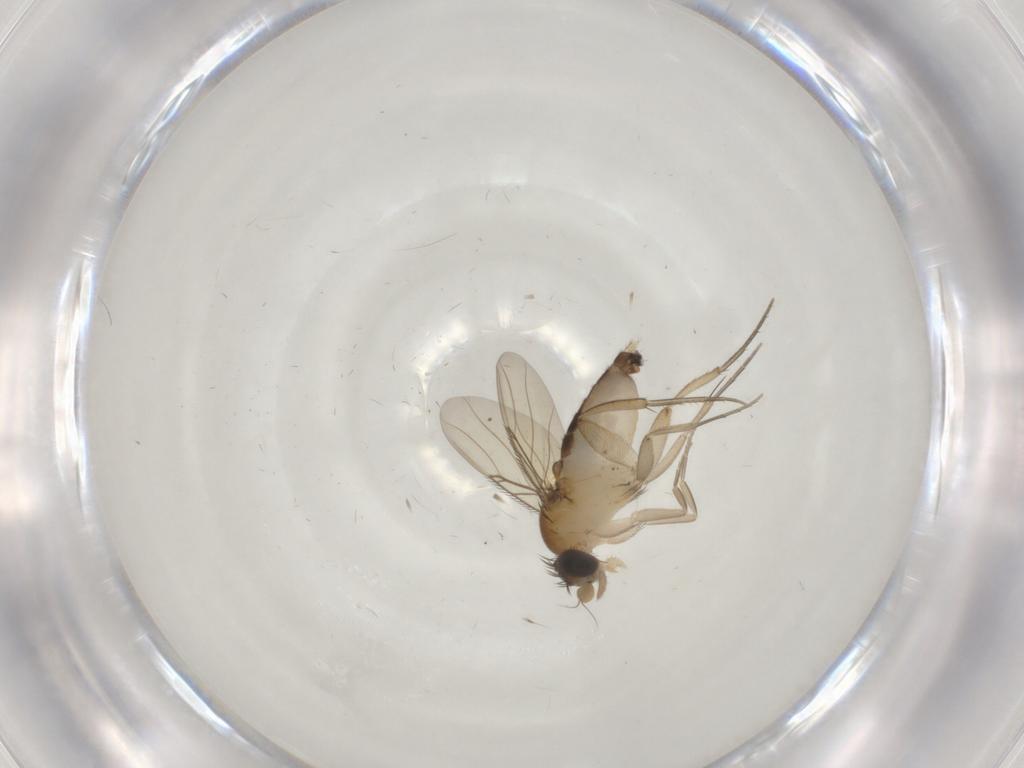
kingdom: Animalia
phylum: Arthropoda
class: Insecta
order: Diptera
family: Phoridae
